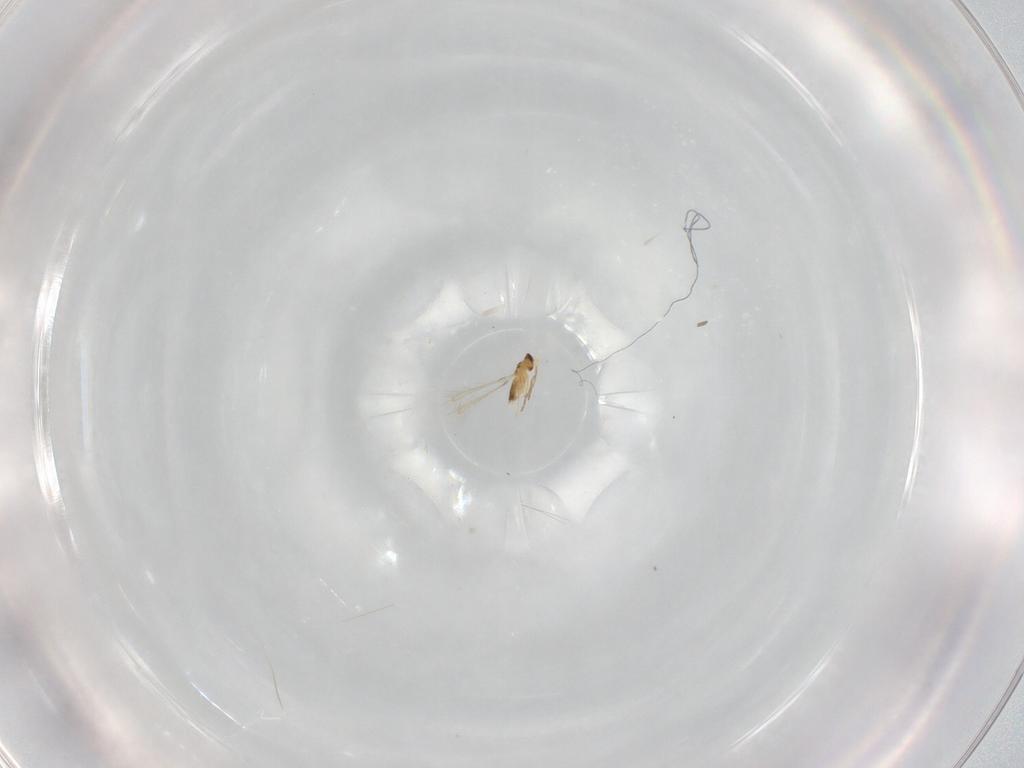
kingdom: Animalia
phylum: Arthropoda
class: Insecta
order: Hymenoptera
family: Mymaridae
